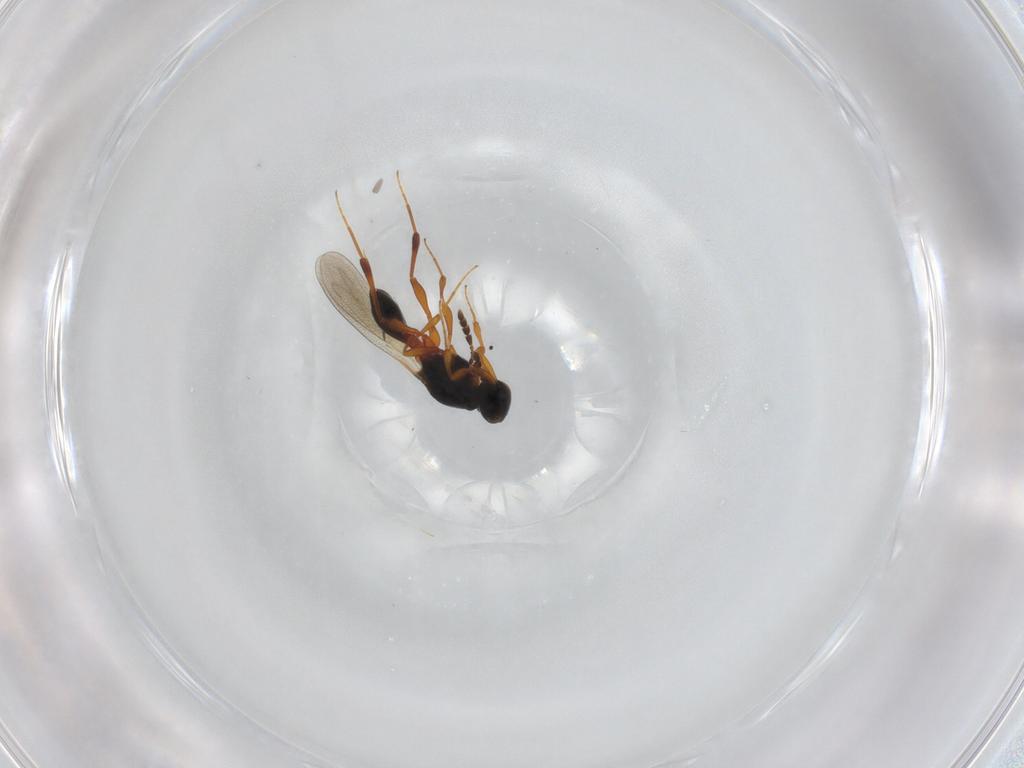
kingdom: Animalia
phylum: Arthropoda
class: Insecta
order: Hymenoptera
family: Platygastridae
